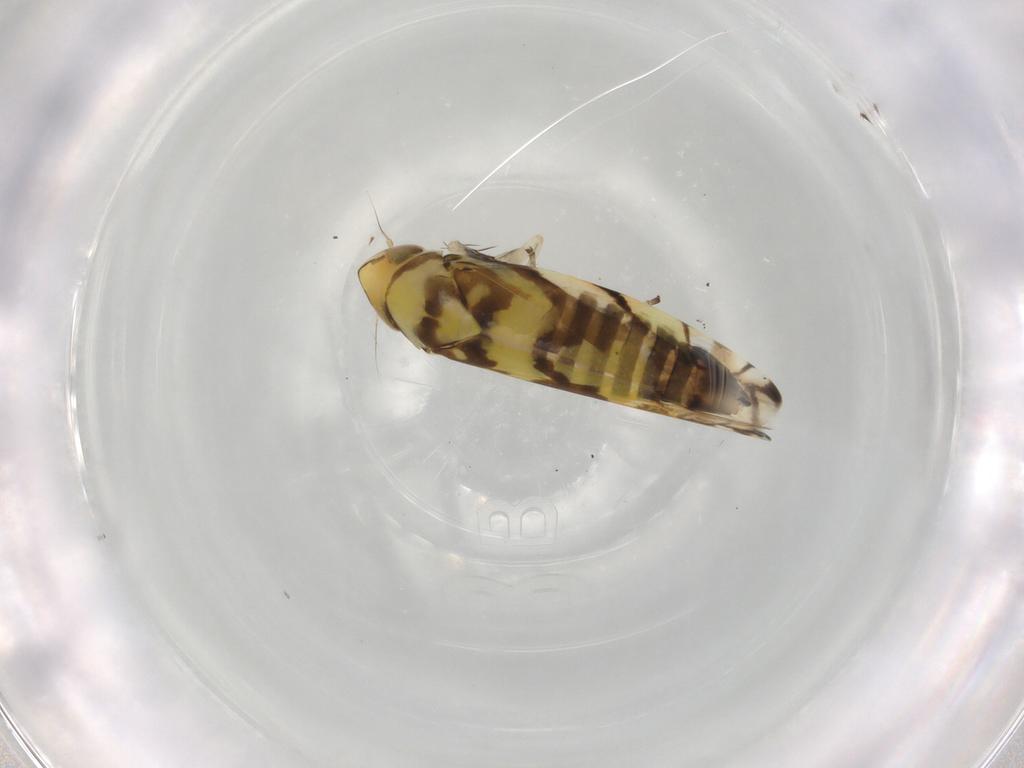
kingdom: Animalia
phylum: Arthropoda
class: Insecta
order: Hemiptera
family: Cicadellidae
